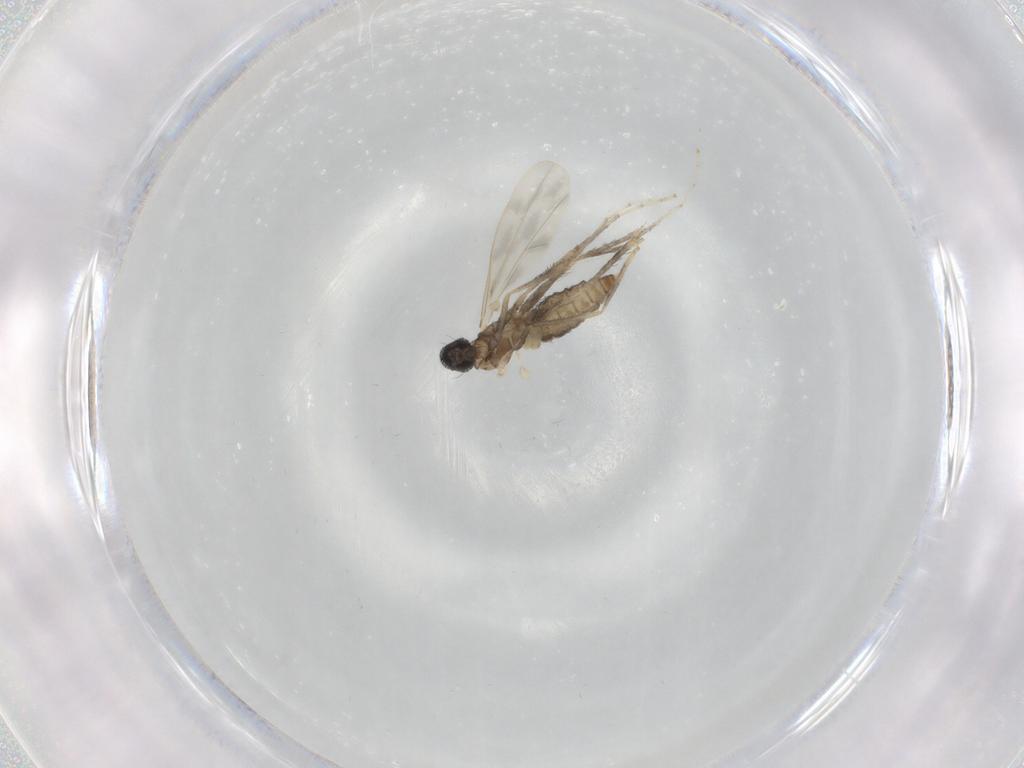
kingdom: Animalia
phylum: Arthropoda
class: Insecta
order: Diptera
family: Cecidomyiidae
